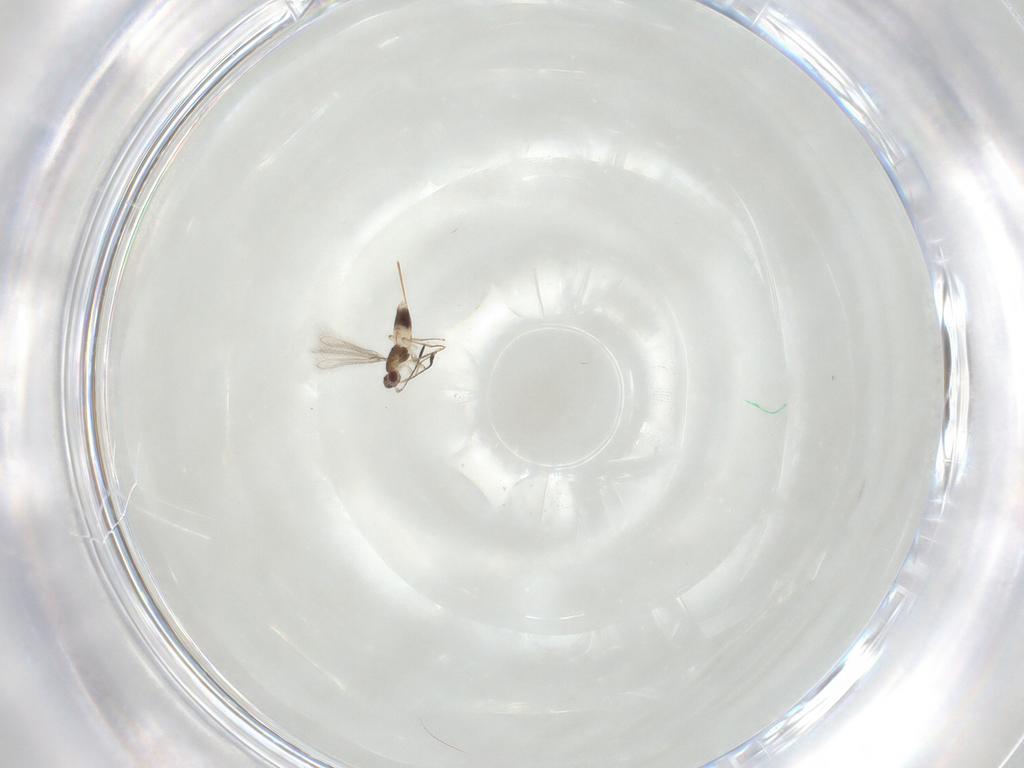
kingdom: Animalia
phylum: Arthropoda
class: Insecta
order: Hymenoptera
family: Mymaridae
